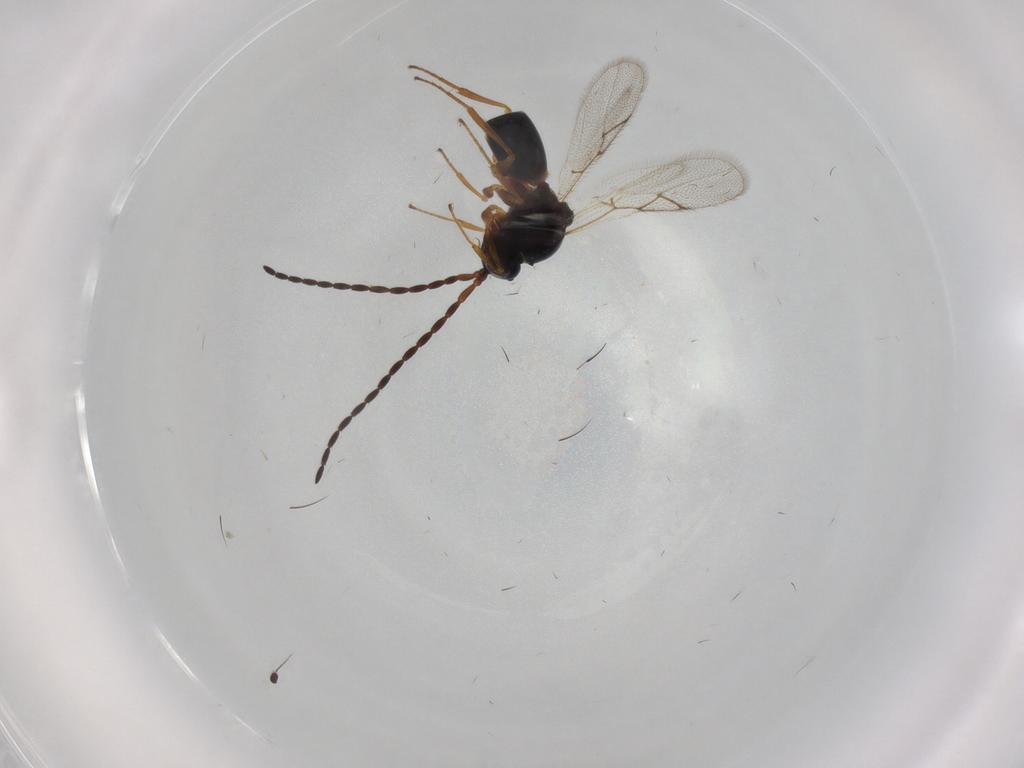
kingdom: Animalia
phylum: Arthropoda
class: Insecta
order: Hymenoptera
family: Figitidae
